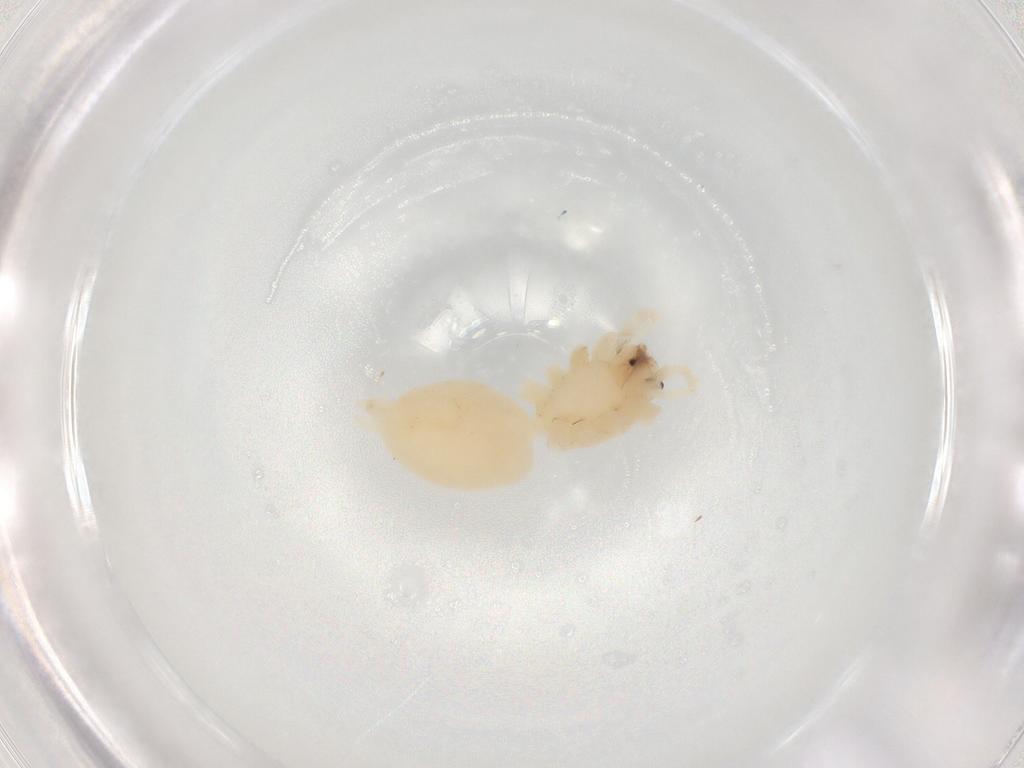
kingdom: Animalia
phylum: Arthropoda
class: Arachnida
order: Araneae
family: Anyphaenidae
